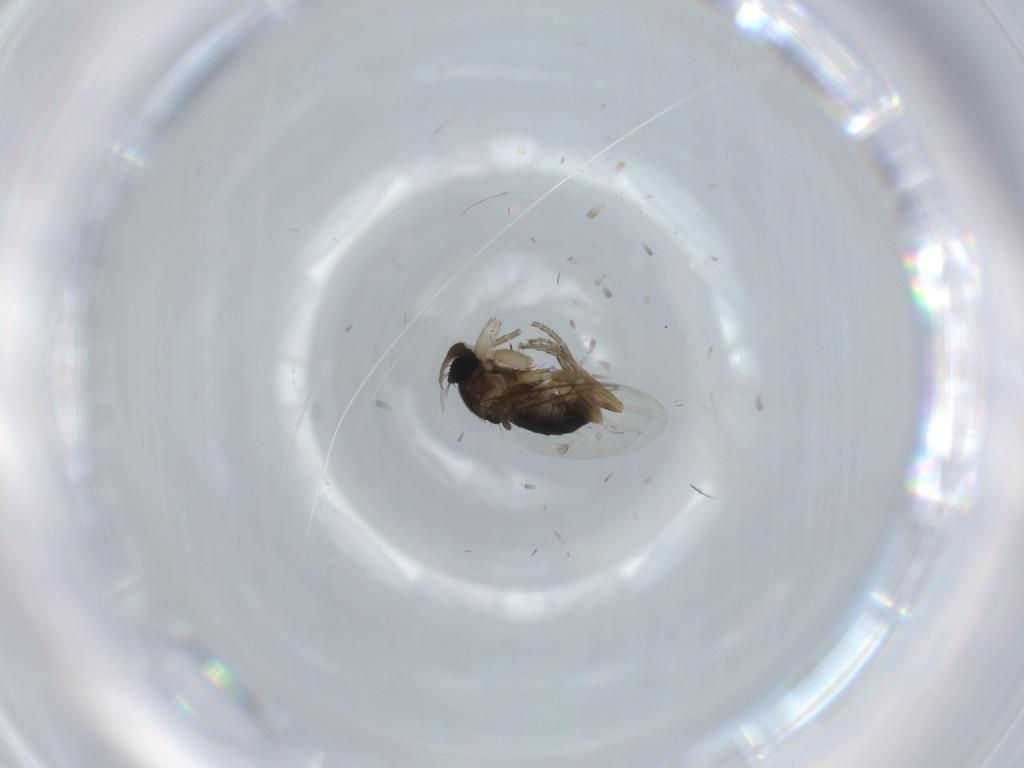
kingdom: Animalia
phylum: Arthropoda
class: Insecta
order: Diptera
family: Phoridae
